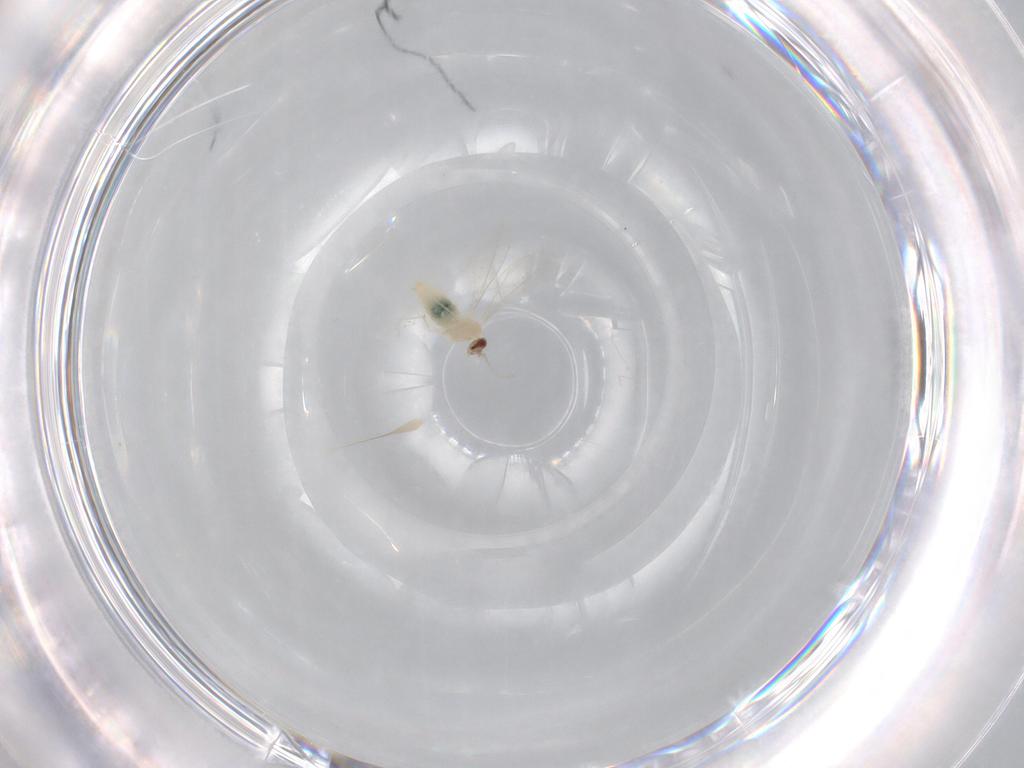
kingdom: Animalia
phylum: Arthropoda
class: Insecta
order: Diptera
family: Cecidomyiidae
